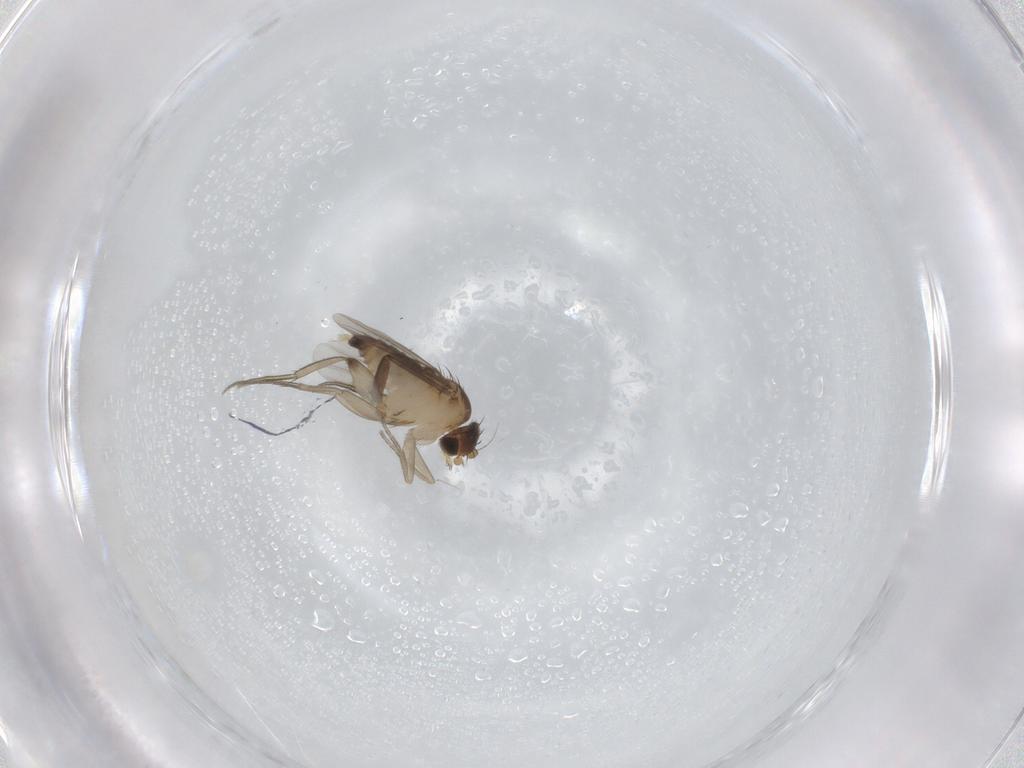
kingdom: Animalia
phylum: Arthropoda
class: Insecta
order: Diptera
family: Sciaridae
